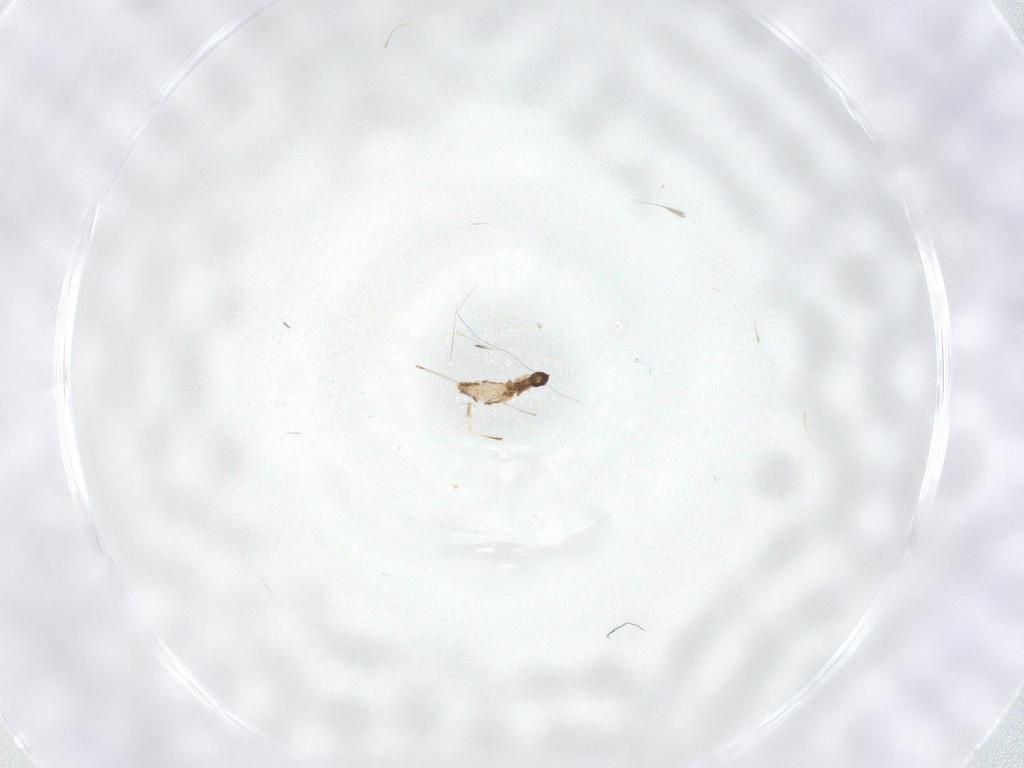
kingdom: Animalia
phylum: Arthropoda
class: Insecta
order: Diptera
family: Cecidomyiidae
